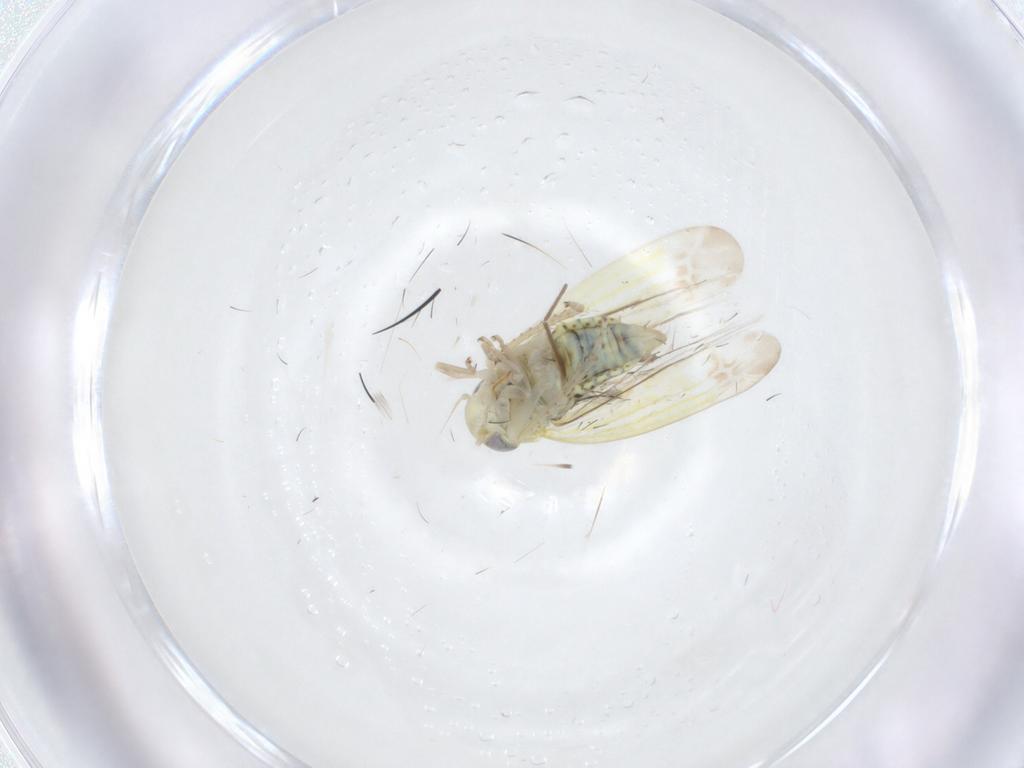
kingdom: Animalia
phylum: Arthropoda
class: Insecta
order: Hemiptera
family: Cicadellidae
